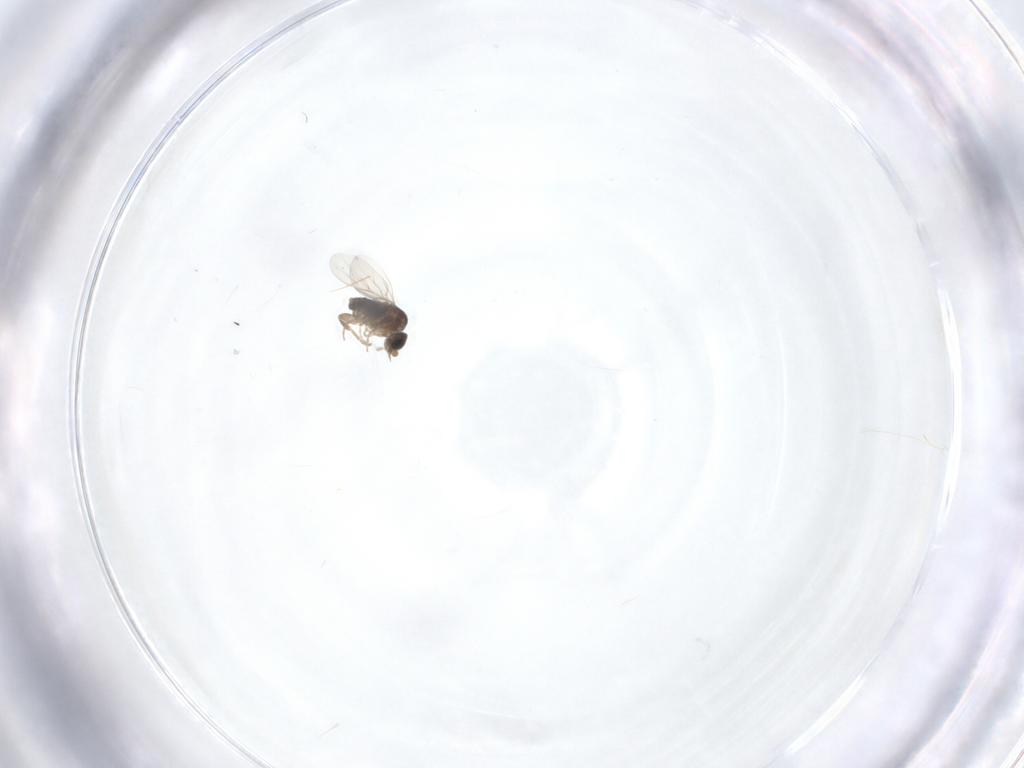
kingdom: Animalia
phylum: Arthropoda
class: Insecta
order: Diptera
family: Phoridae
